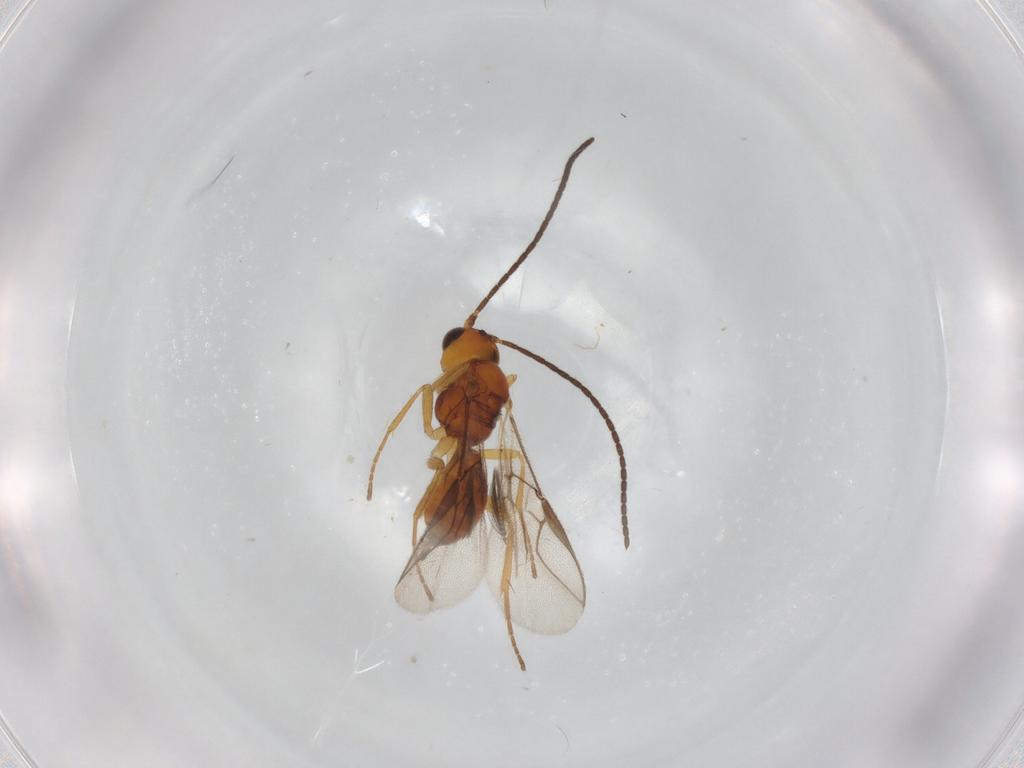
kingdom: Animalia
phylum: Arthropoda
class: Insecta
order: Hymenoptera
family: Braconidae
